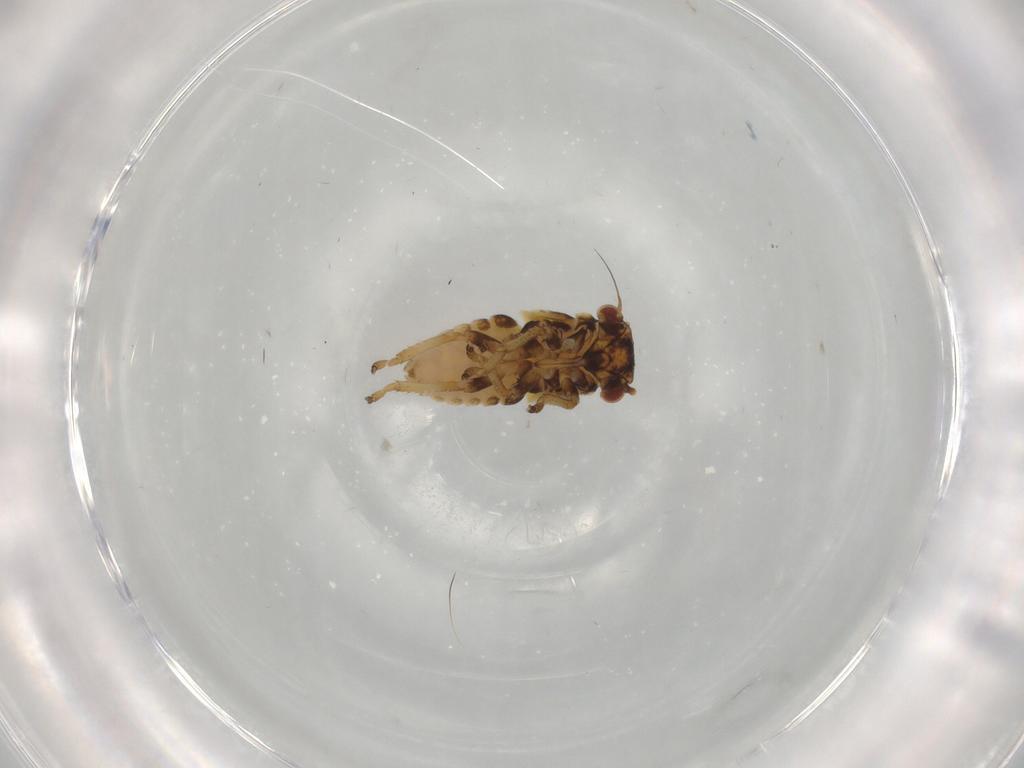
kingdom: Animalia
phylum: Arthropoda
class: Insecta
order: Hemiptera
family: Cicadellidae
